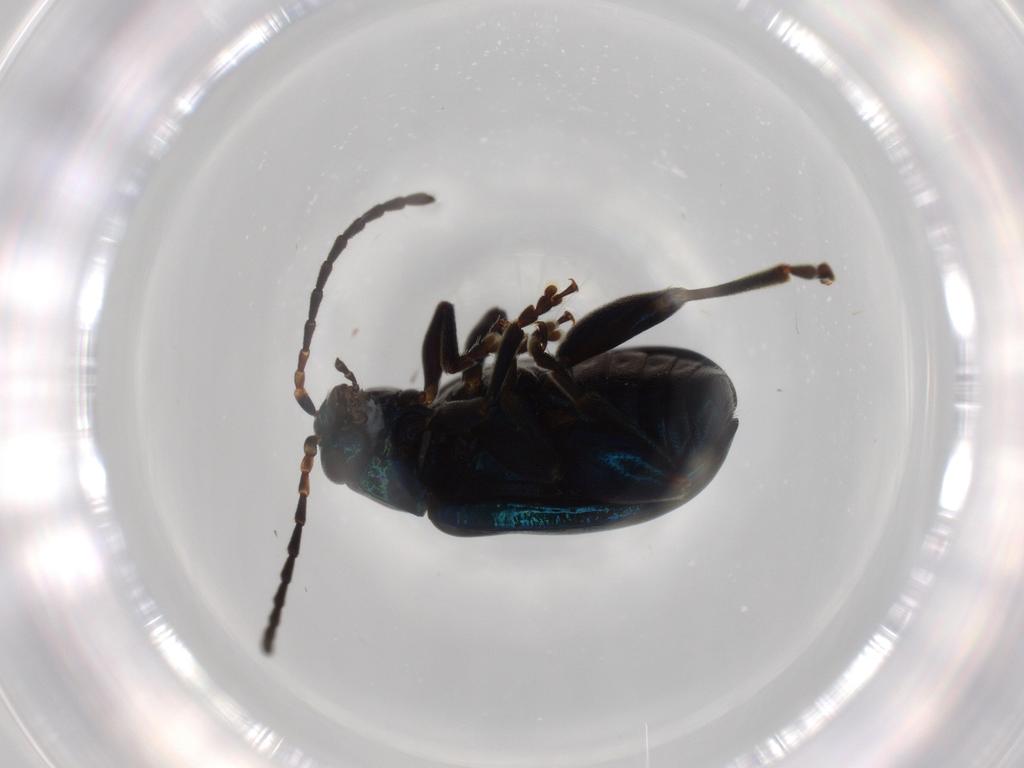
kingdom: Animalia
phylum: Arthropoda
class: Insecta
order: Coleoptera
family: Chrysomelidae
